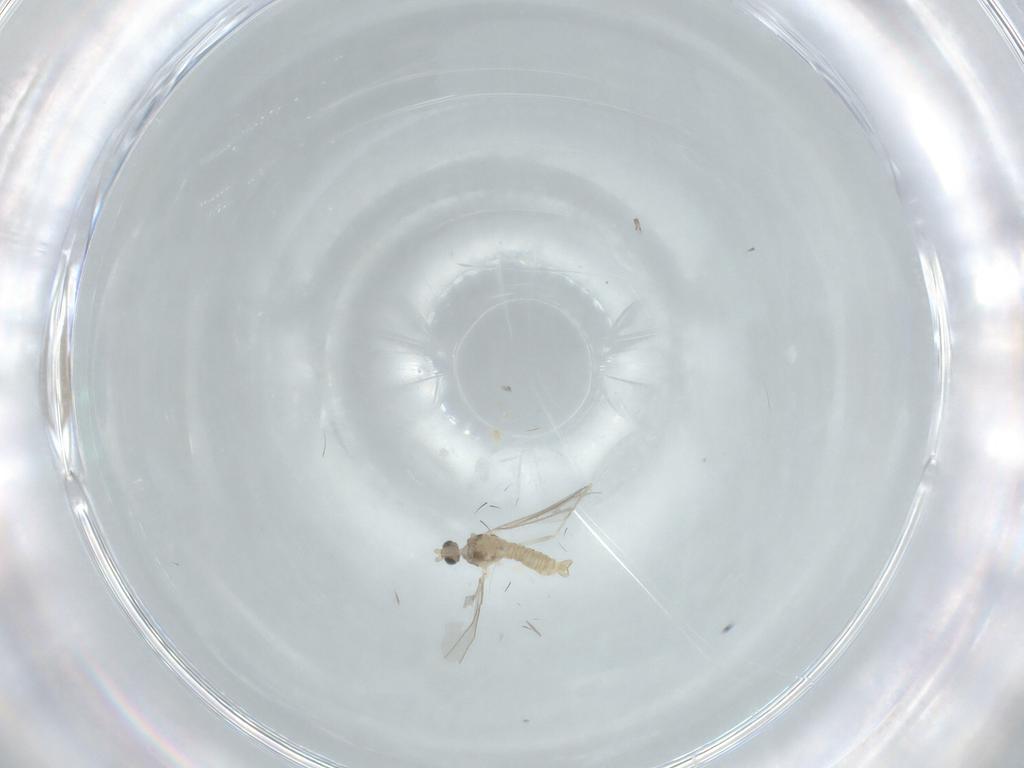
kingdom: Animalia
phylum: Arthropoda
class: Insecta
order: Diptera
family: Cecidomyiidae
